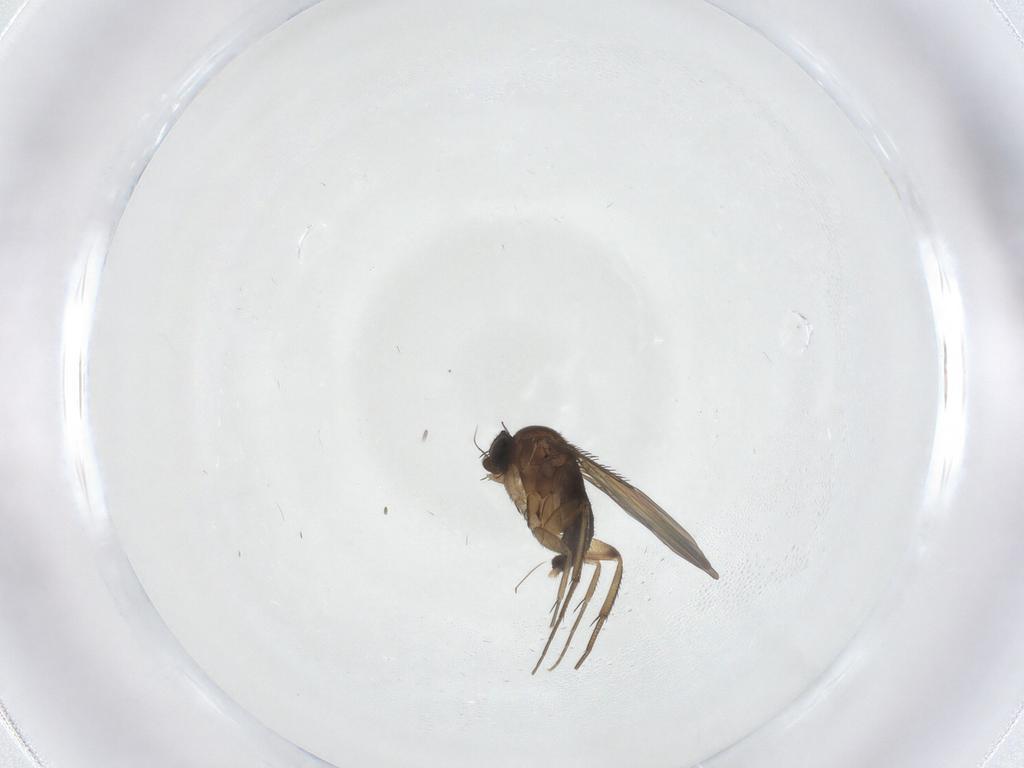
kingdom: Animalia
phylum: Arthropoda
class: Insecta
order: Diptera
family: Phoridae
